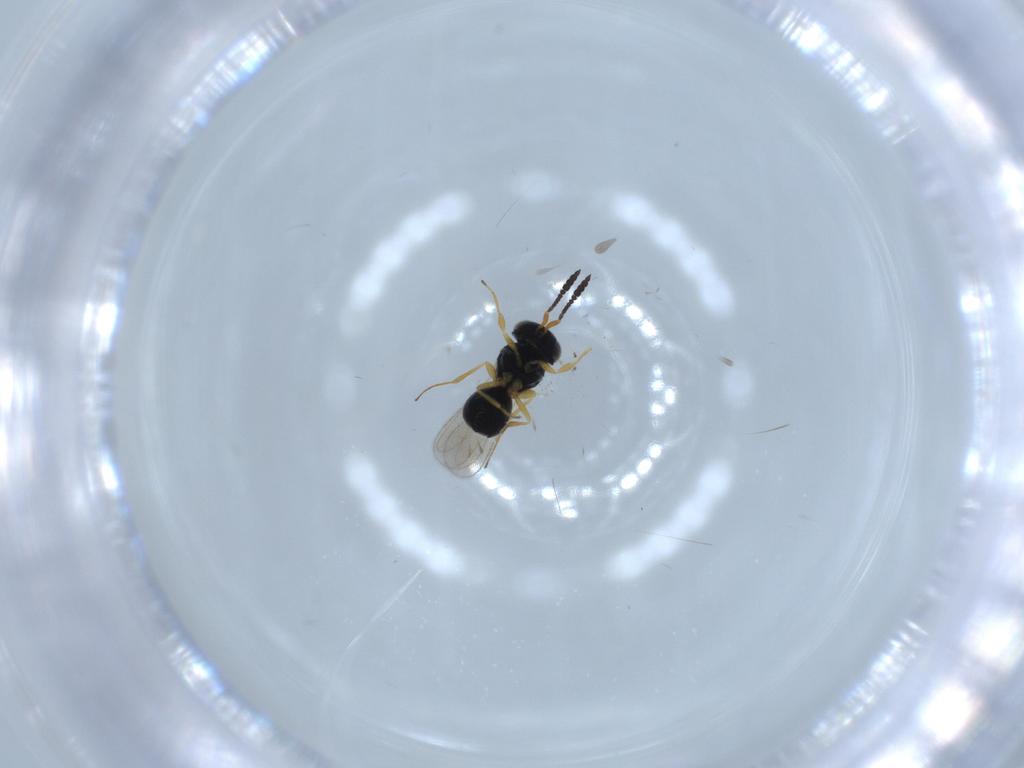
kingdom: Animalia
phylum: Arthropoda
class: Insecta
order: Hymenoptera
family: Scelionidae
